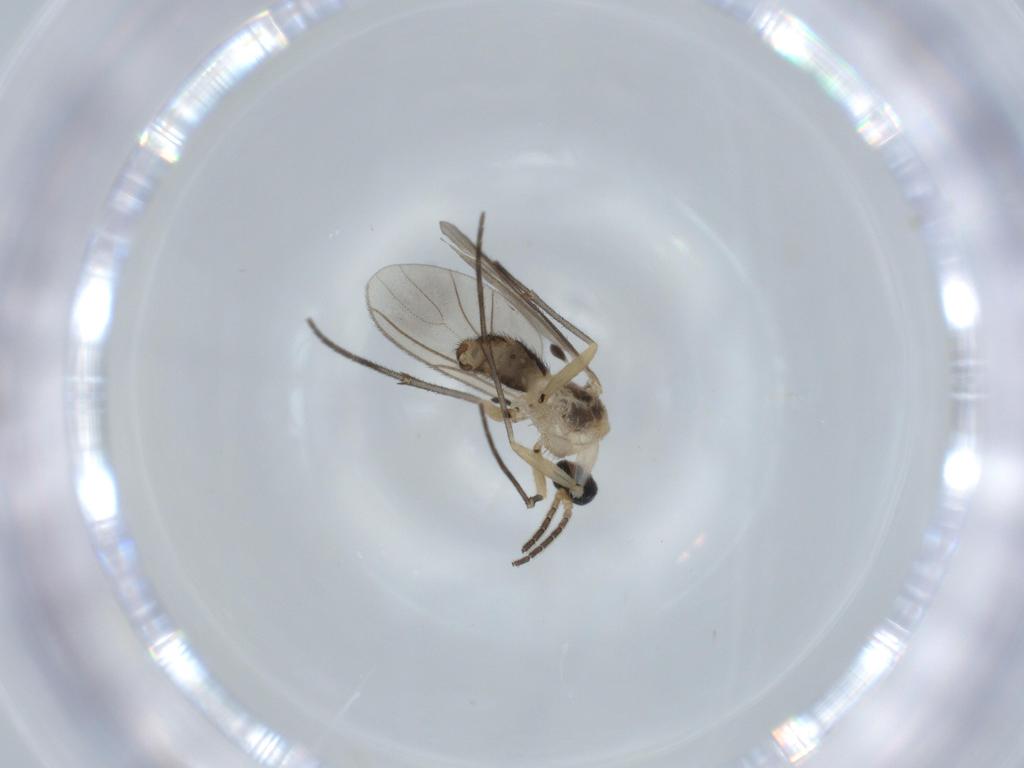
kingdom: Animalia
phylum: Arthropoda
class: Insecta
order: Diptera
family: Sciaridae
